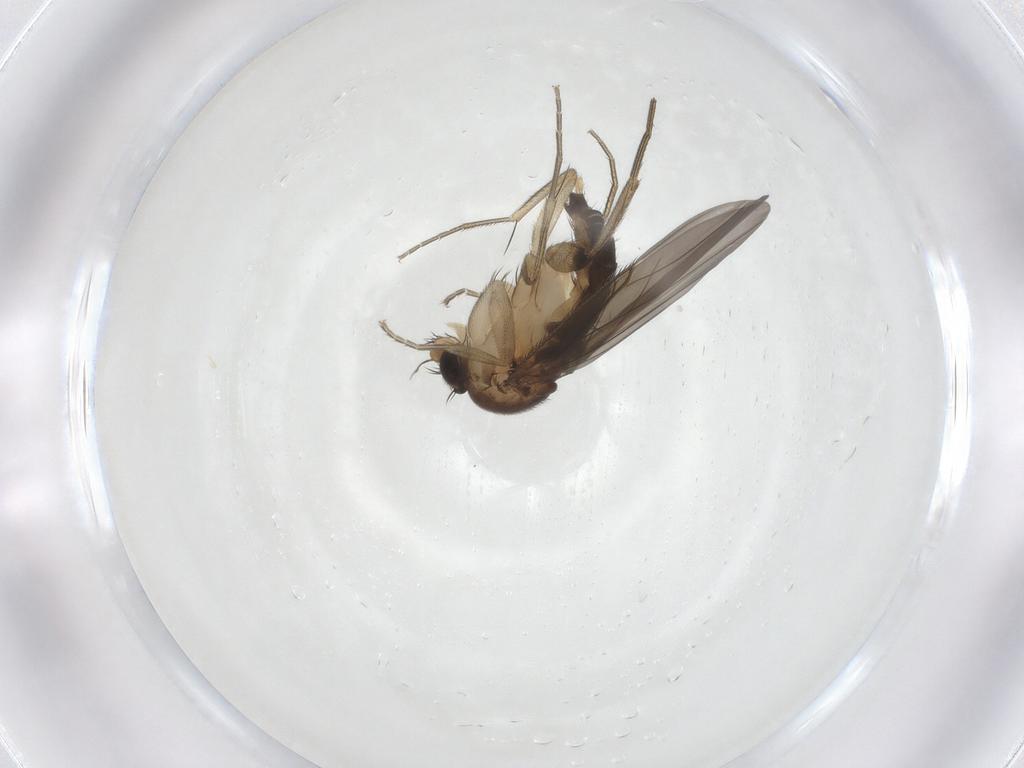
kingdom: Animalia
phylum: Arthropoda
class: Insecta
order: Diptera
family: Phoridae
